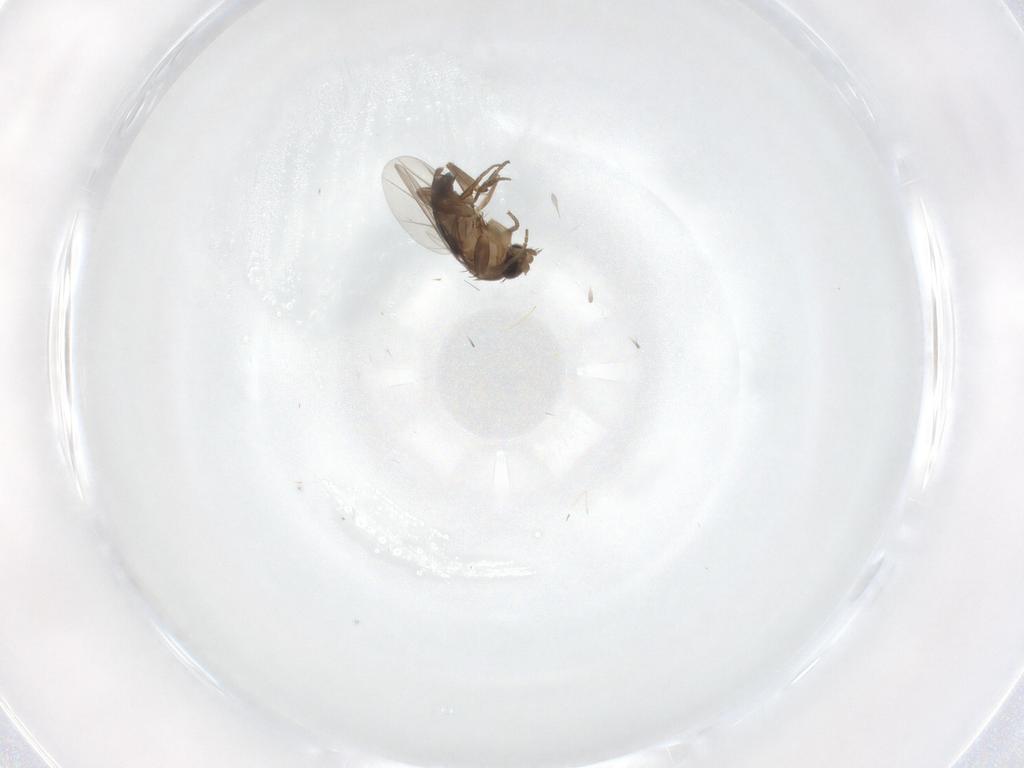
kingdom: Animalia
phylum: Arthropoda
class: Insecta
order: Diptera
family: Phoridae
